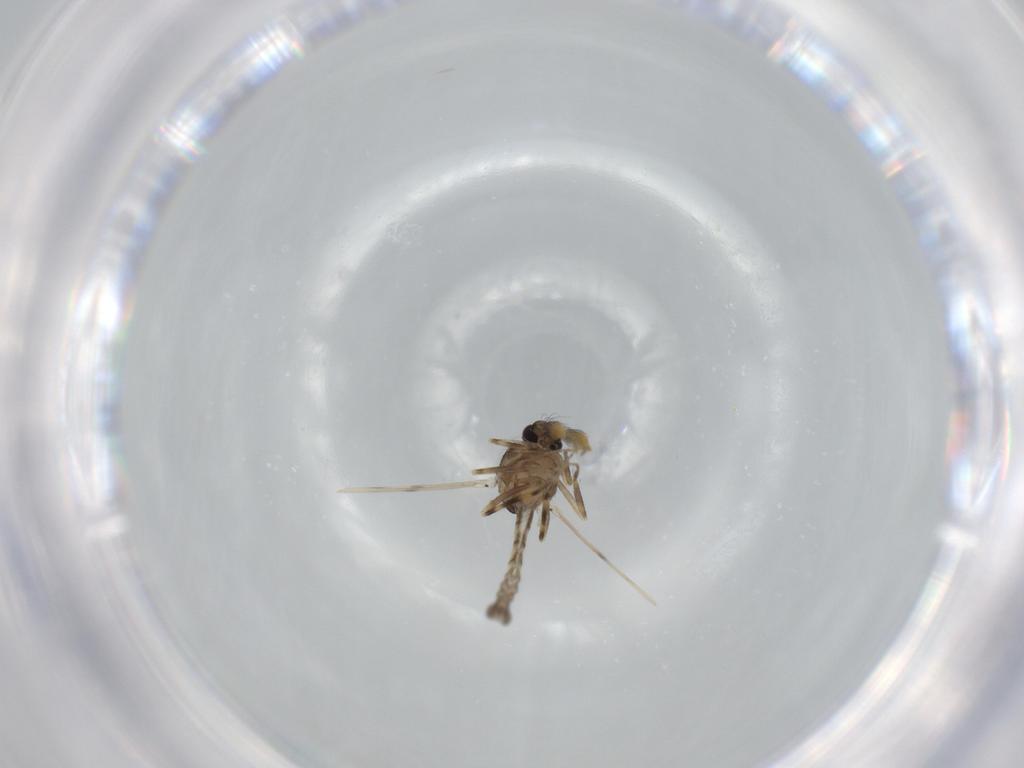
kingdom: Animalia
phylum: Arthropoda
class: Insecta
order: Diptera
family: Ceratopogonidae
